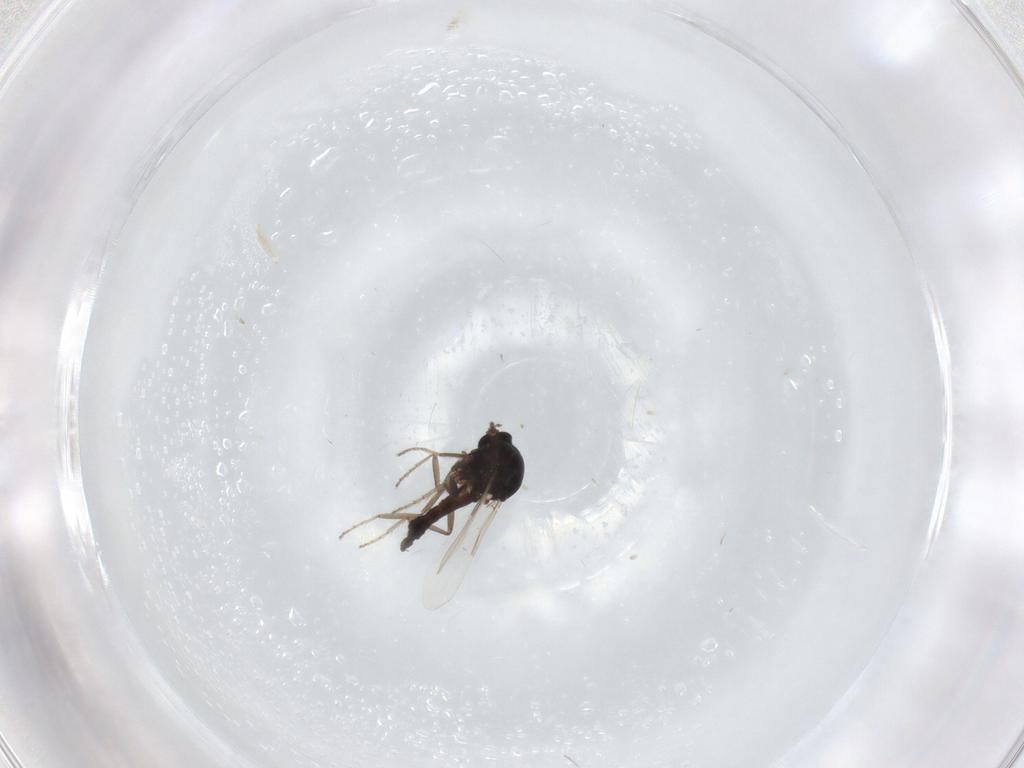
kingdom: Animalia
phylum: Arthropoda
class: Insecta
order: Diptera
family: Ceratopogonidae
